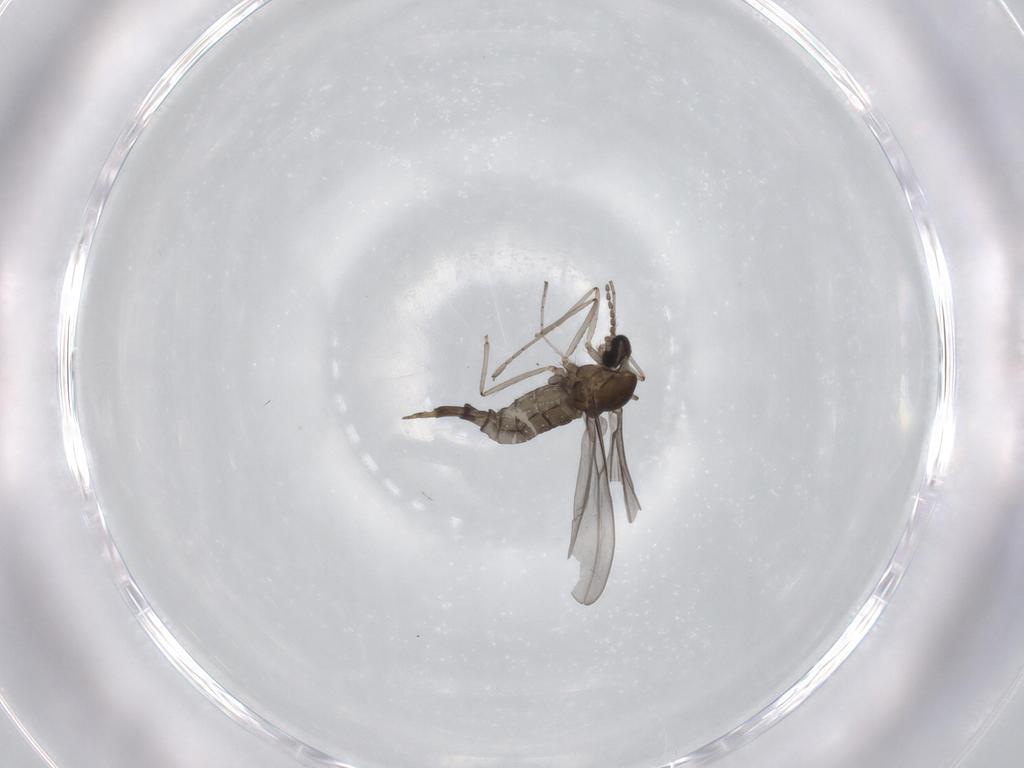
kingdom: Animalia
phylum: Arthropoda
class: Insecta
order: Diptera
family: Cecidomyiidae
